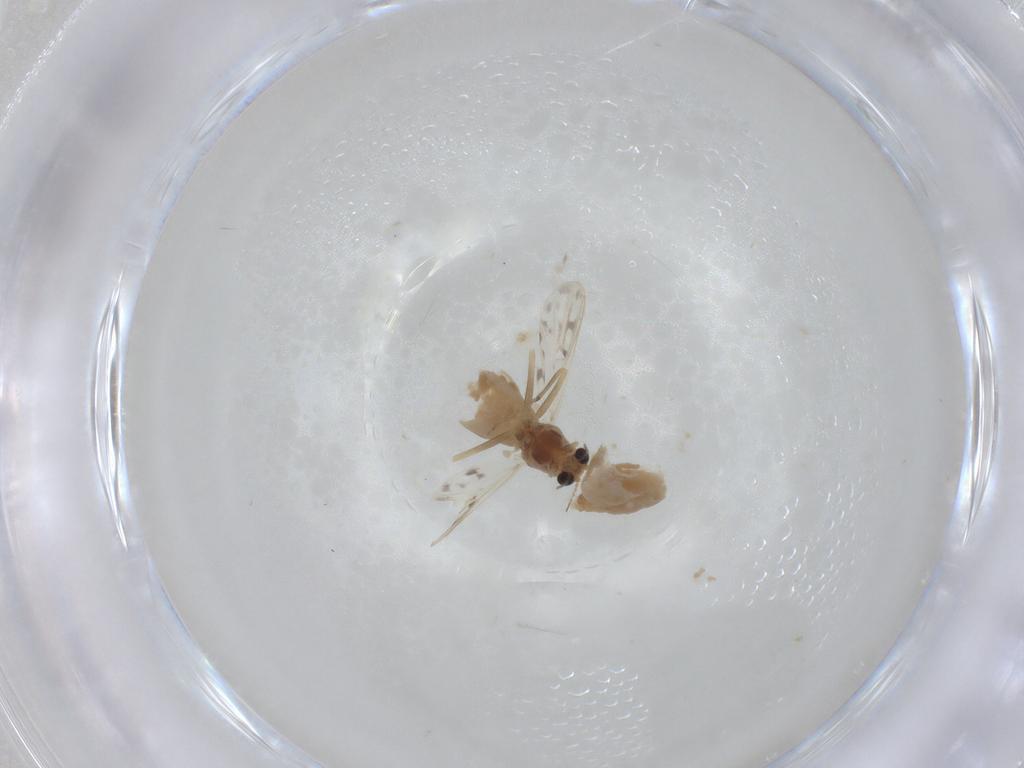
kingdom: Animalia
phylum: Arthropoda
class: Insecta
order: Diptera
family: Chironomidae
